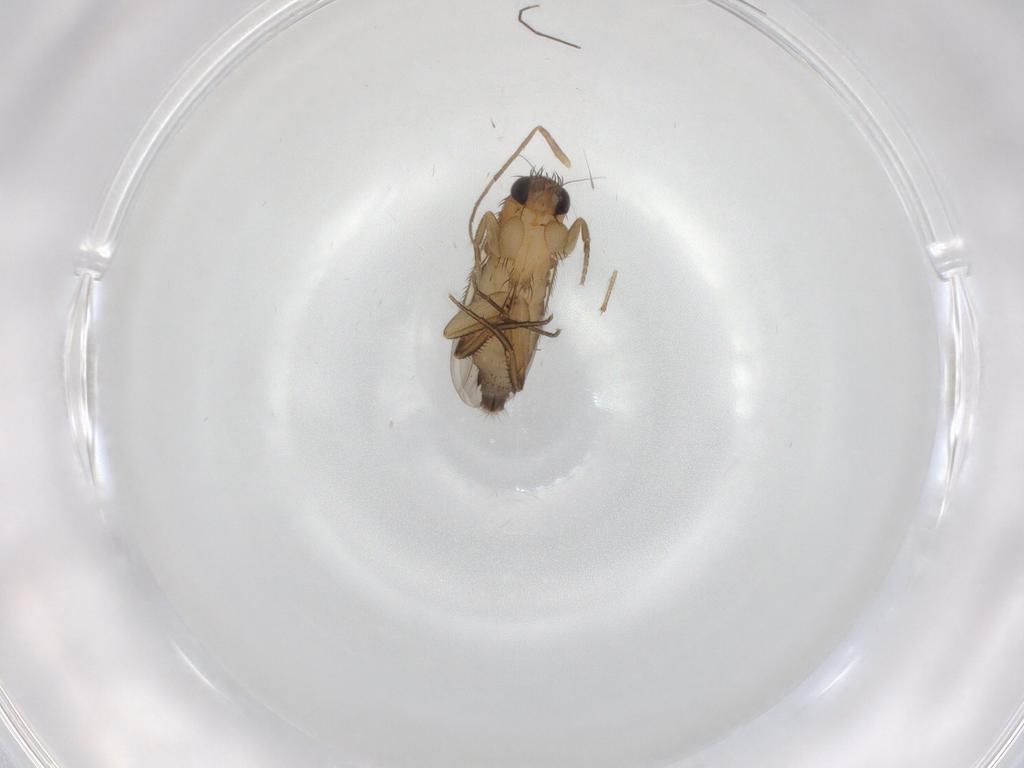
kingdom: Animalia
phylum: Arthropoda
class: Insecta
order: Diptera
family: Phoridae
